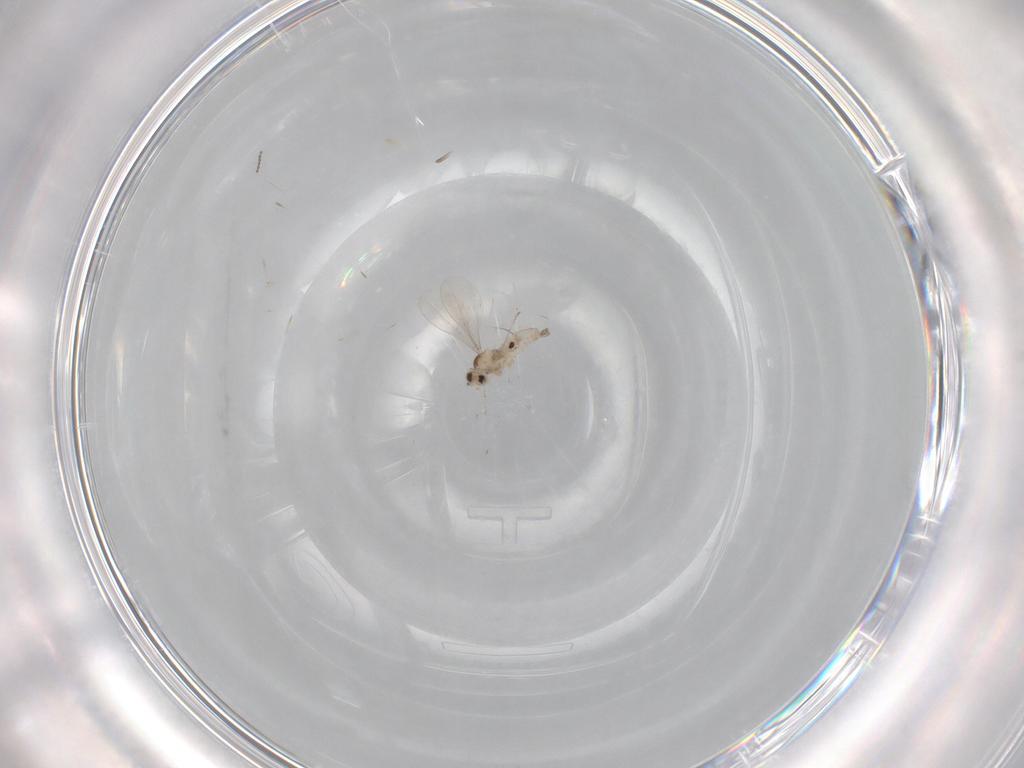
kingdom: Animalia
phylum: Arthropoda
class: Insecta
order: Diptera
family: Cecidomyiidae
